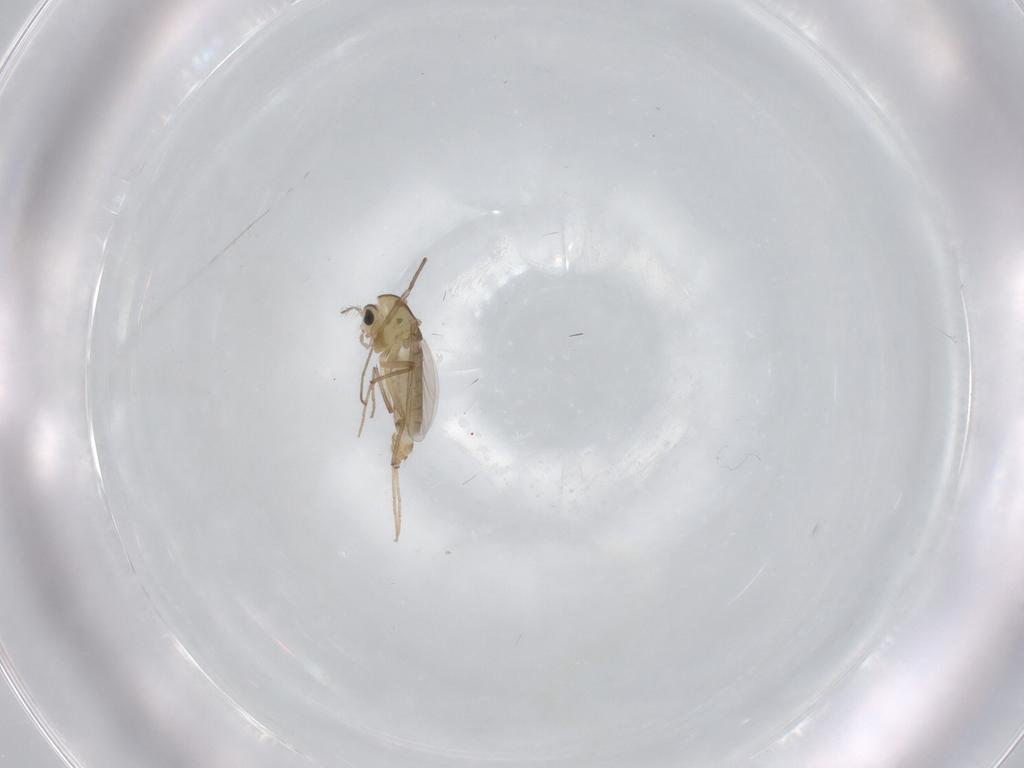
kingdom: Animalia
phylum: Arthropoda
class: Insecta
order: Diptera
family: Chironomidae
